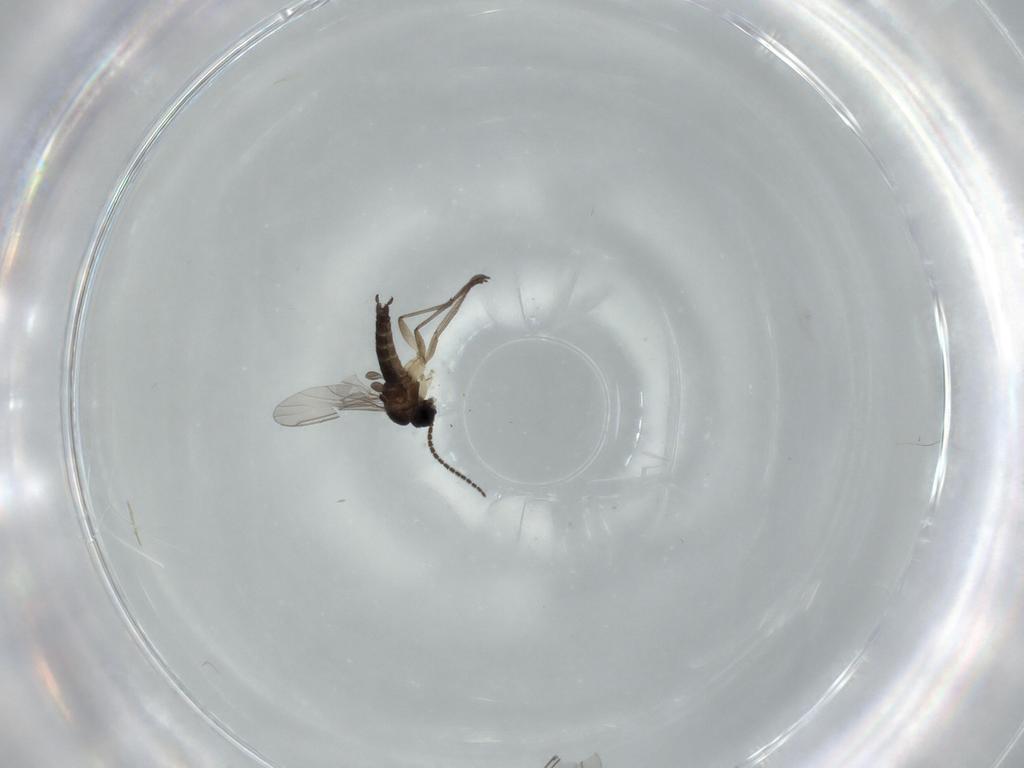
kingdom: Animalia
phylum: Arthropoda
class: Insecta
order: Diptera
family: Sciaridae
